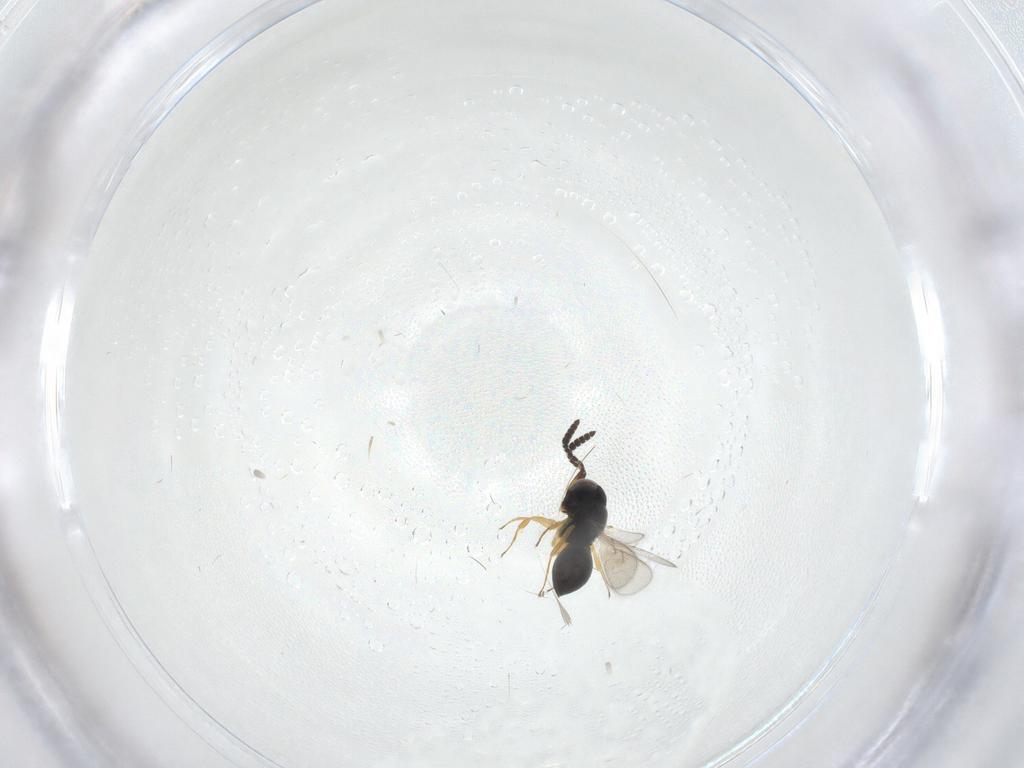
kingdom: Animalia
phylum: Arthropoda
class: Insecta
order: Hymenoptera
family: Scelionidae
